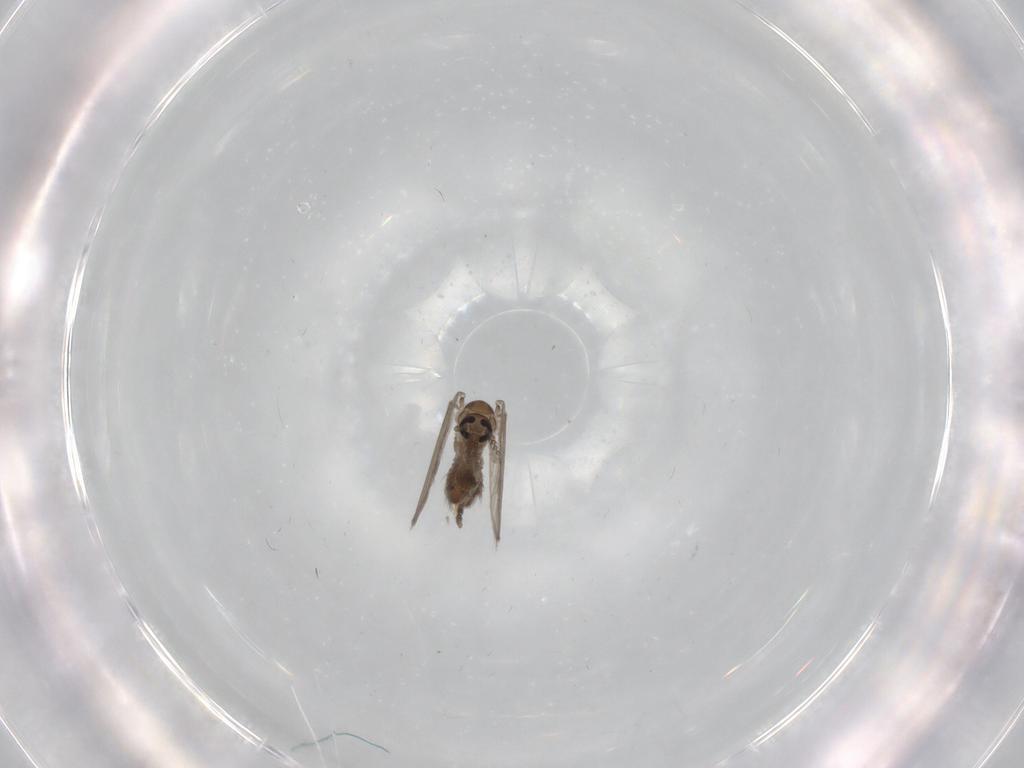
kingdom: Animalia
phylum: Arthropoda
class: Insecta
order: Diptera
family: Psychodidae
